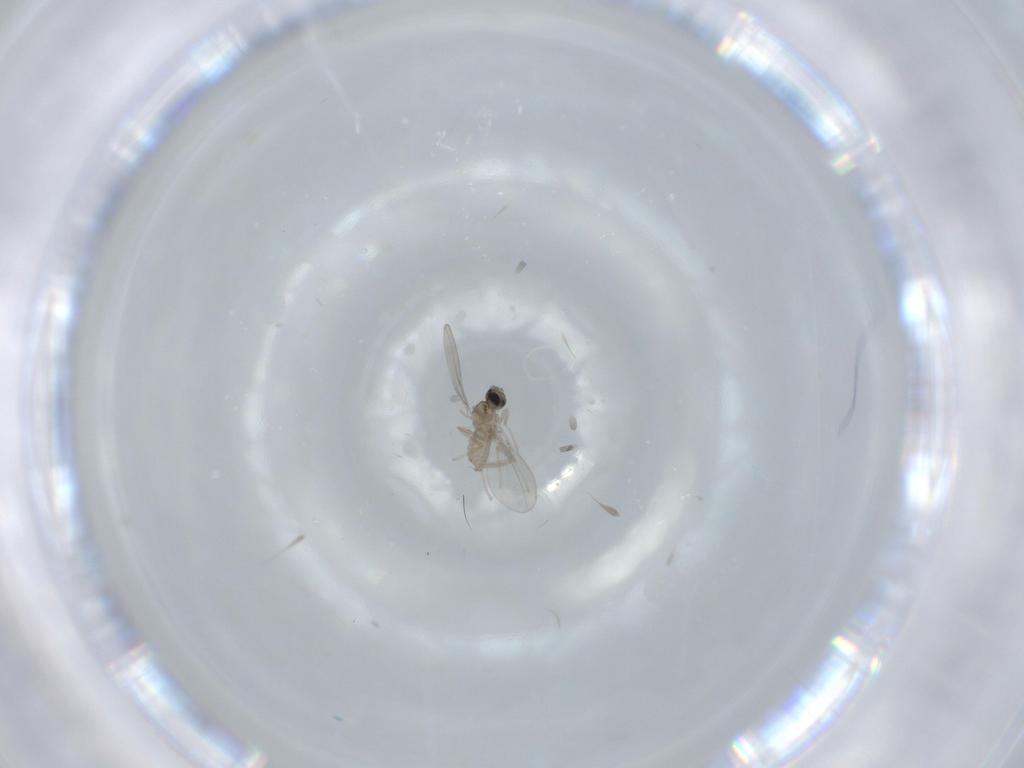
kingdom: Animalia
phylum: Arthropoda
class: Insecta
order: Diptera
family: Cecidomyiidae
